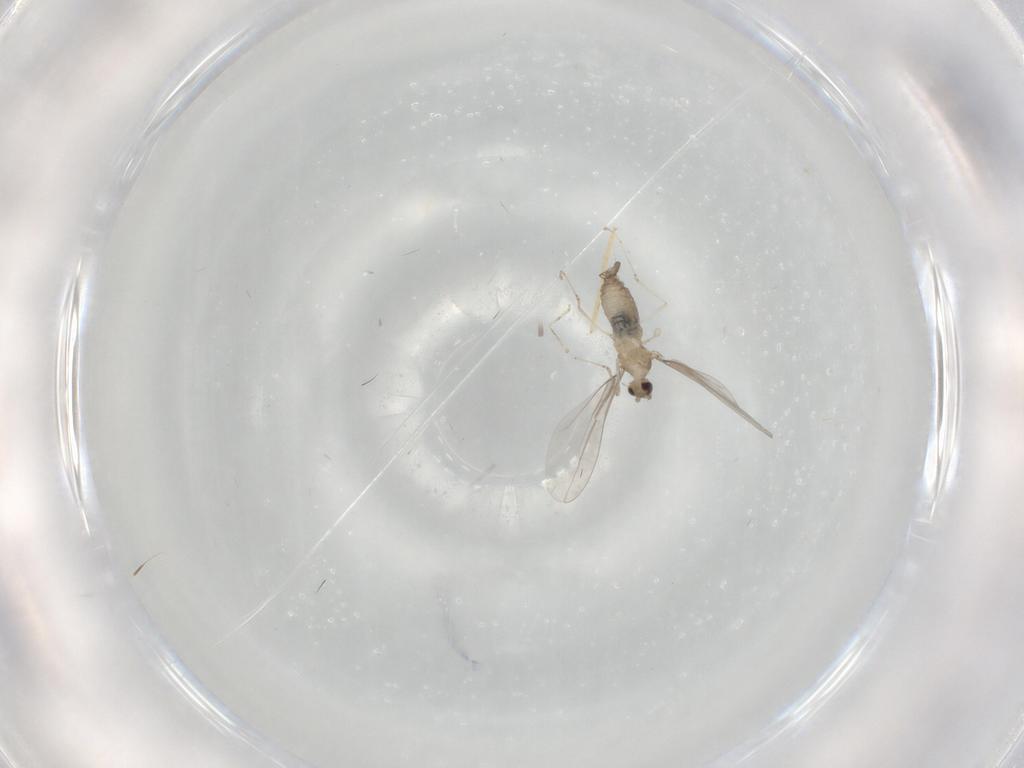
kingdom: Animalia
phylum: Arthropoda
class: Insecta
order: Diptera
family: Cecidomyiidae
